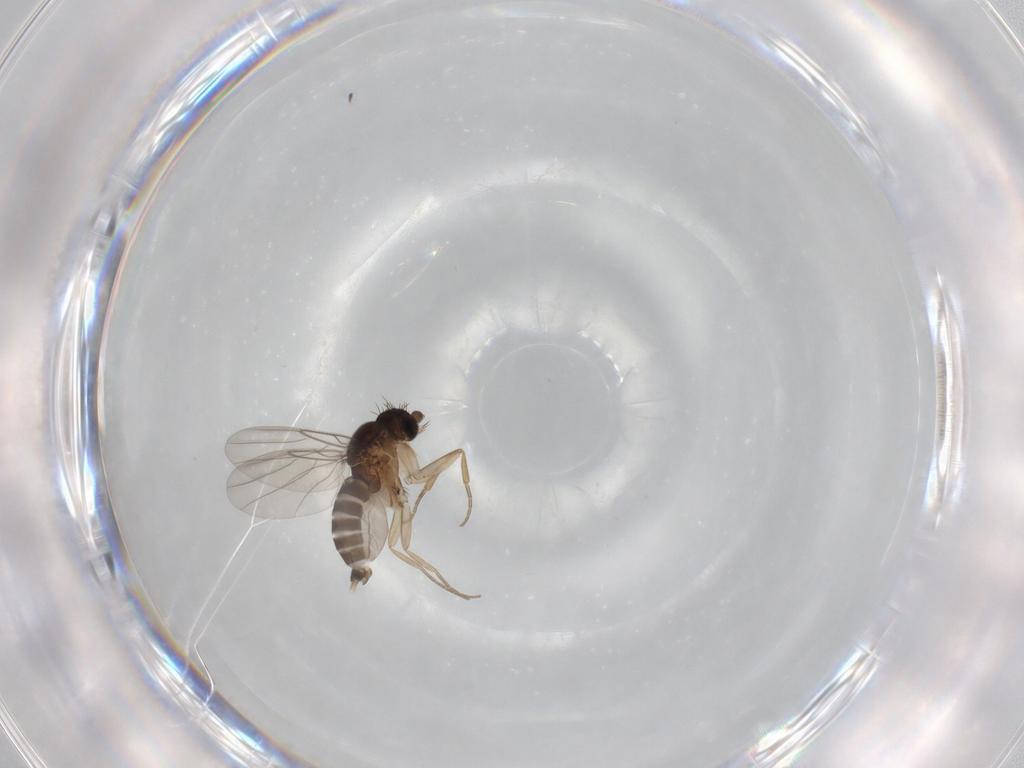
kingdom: Animalia
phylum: Arthropoda
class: Insecta
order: Diptera
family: Phoridae
